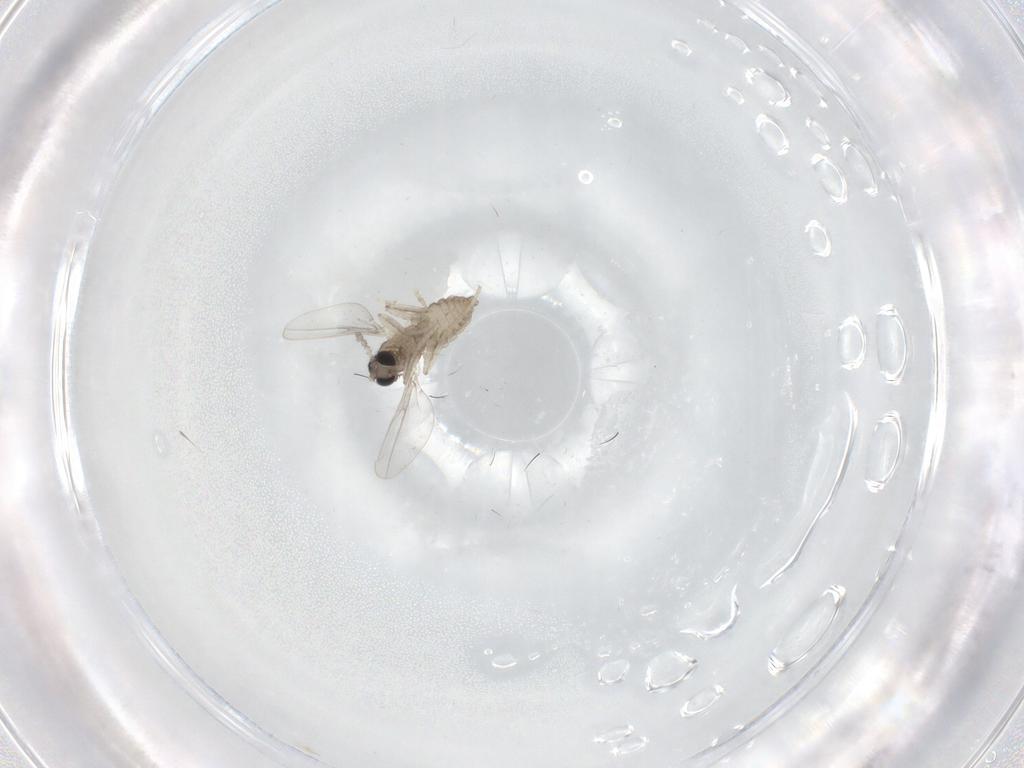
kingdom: Animalia
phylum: Arthropoda
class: Insecta
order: Diptera
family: Cecidomyiidae
